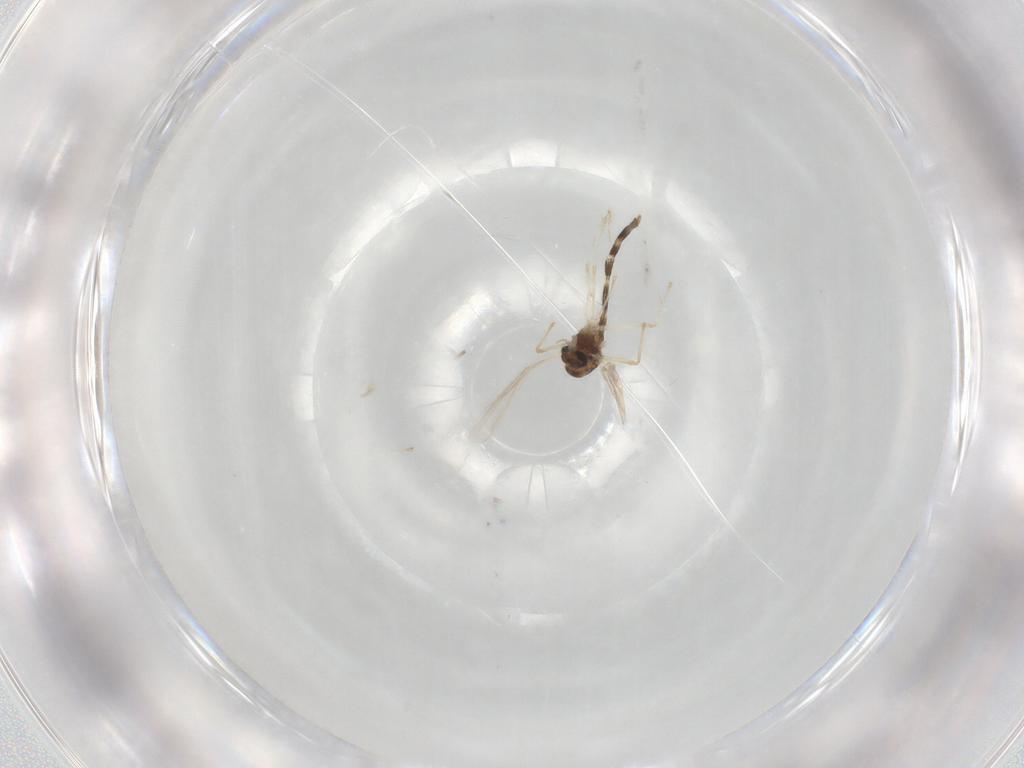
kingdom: Animalia
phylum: Arthropoda
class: Insecta
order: Diptera
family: Chironomidae
